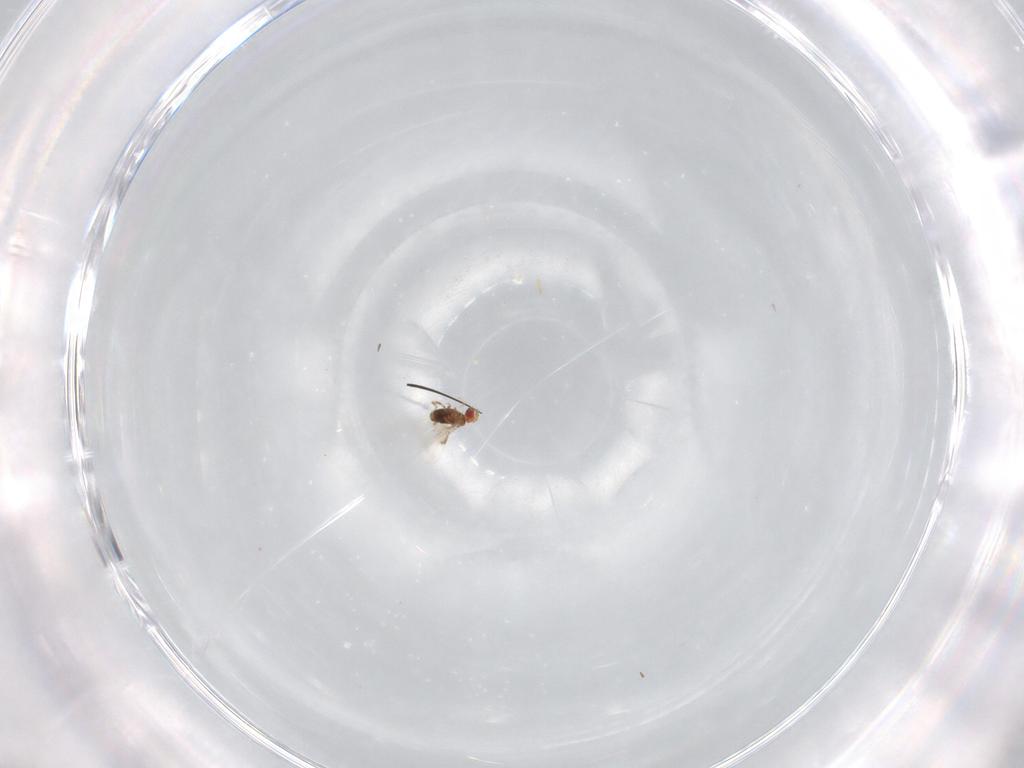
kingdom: Animalia
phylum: Arthropoda
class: Insecta
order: Hymenoptera
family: Trichogrammatidae
